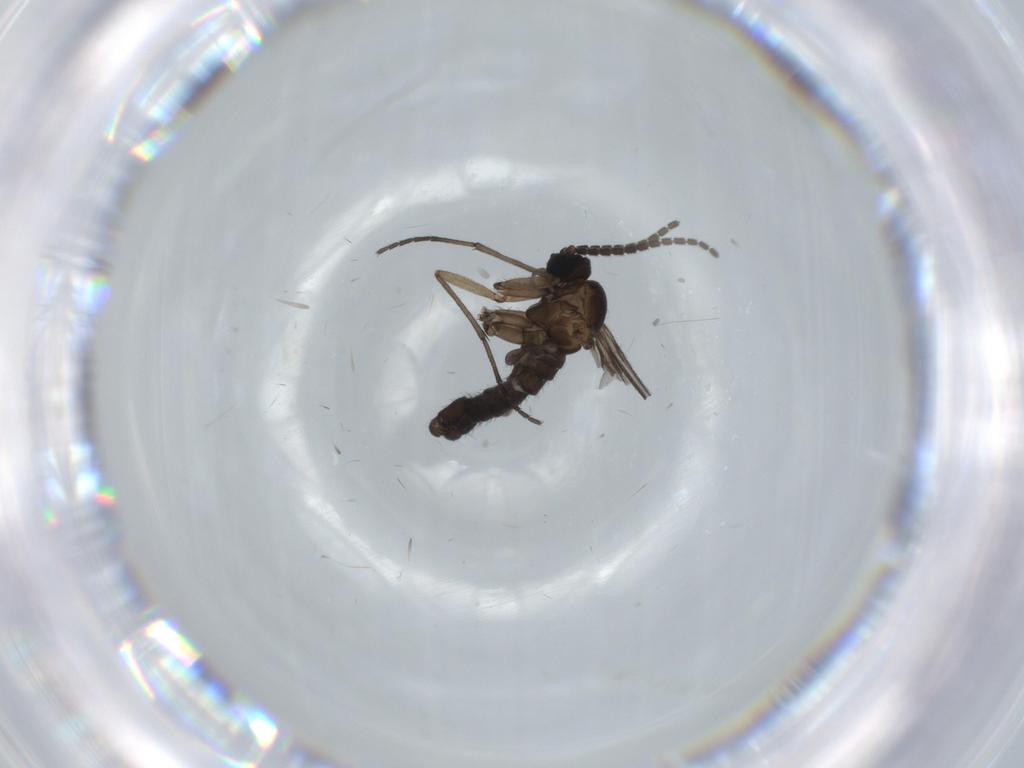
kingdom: Animalia
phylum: Arthropoda
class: Insecta
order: Diptera
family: Sciaridae
